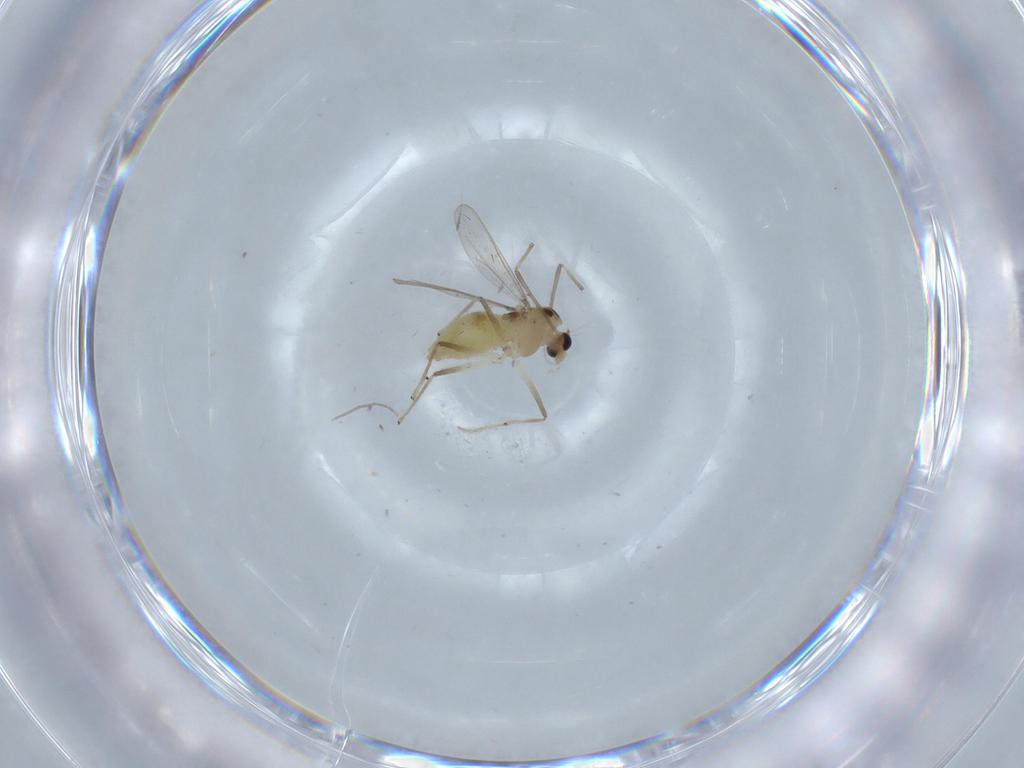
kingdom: Animalia
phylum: Arthropoda
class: Insecta
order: Diptera
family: Chironomidae
